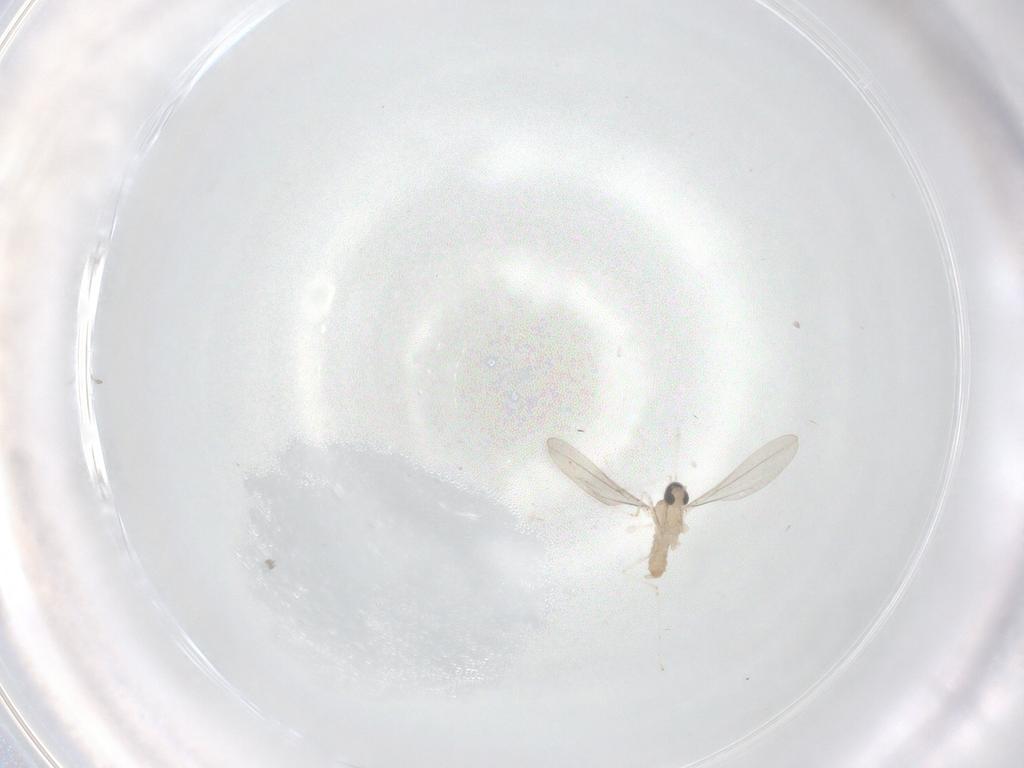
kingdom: Animalia
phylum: Arthropoda
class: Insecta
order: Diptera
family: Cecidomyiidae
